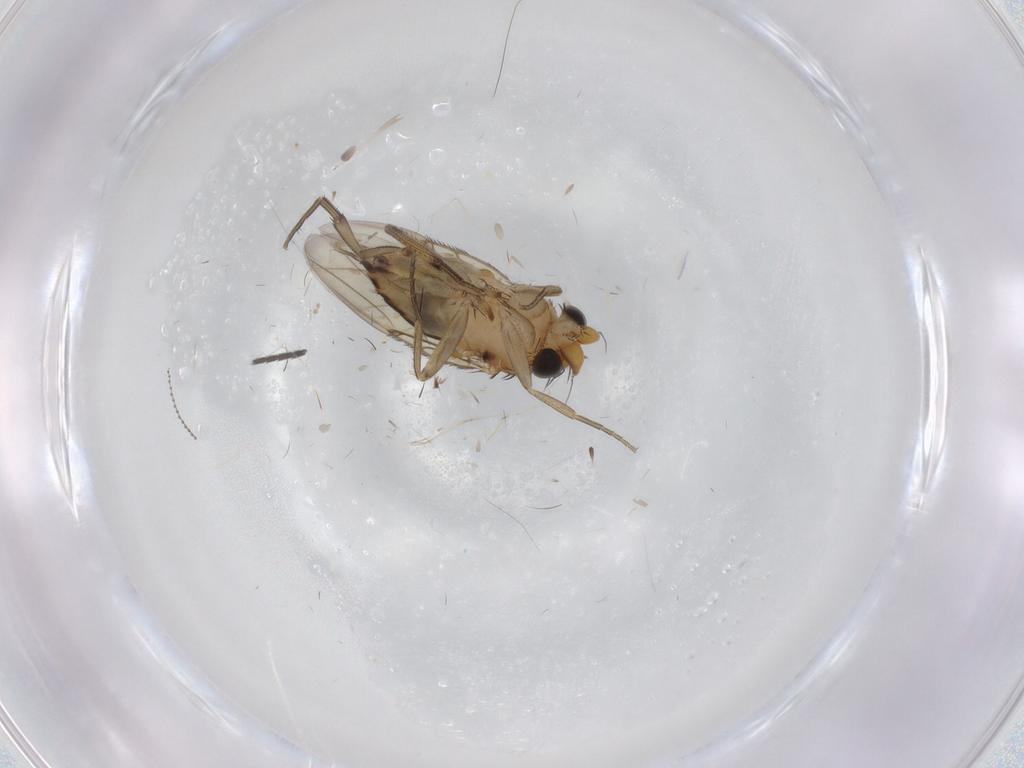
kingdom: Animalia
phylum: Arthropoda
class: Insecta
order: Diptera
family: Cecidomyiidae
